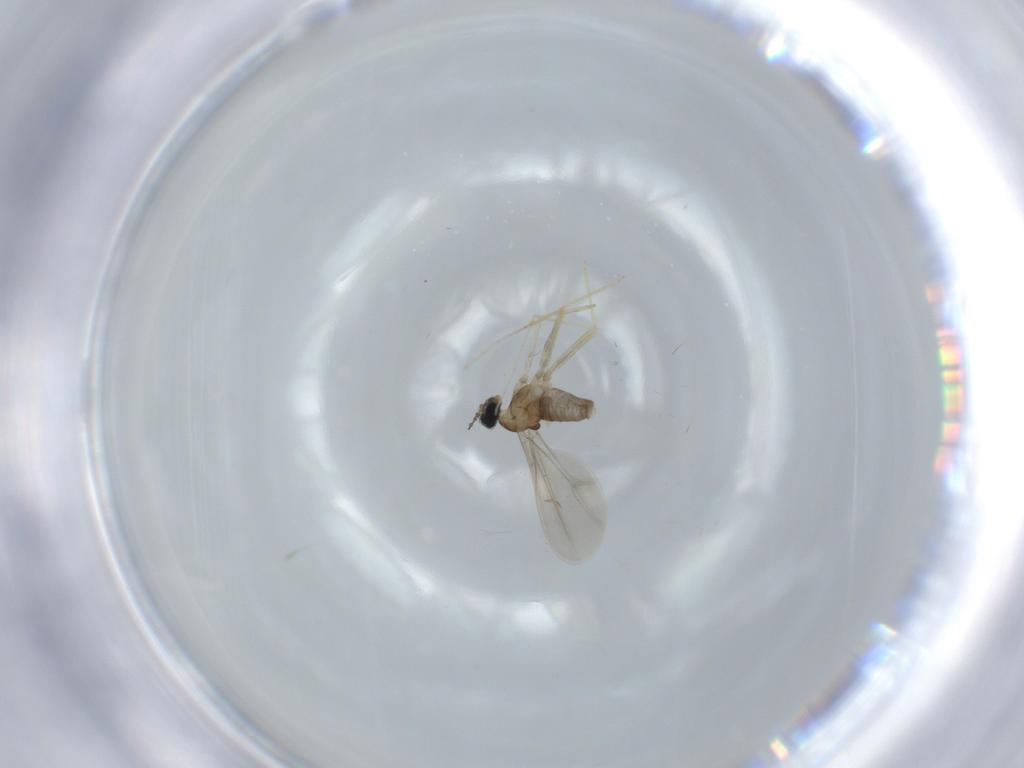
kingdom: Animalia
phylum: Arthropoda
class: Insecta
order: Diptera
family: Cecidomyiidae
